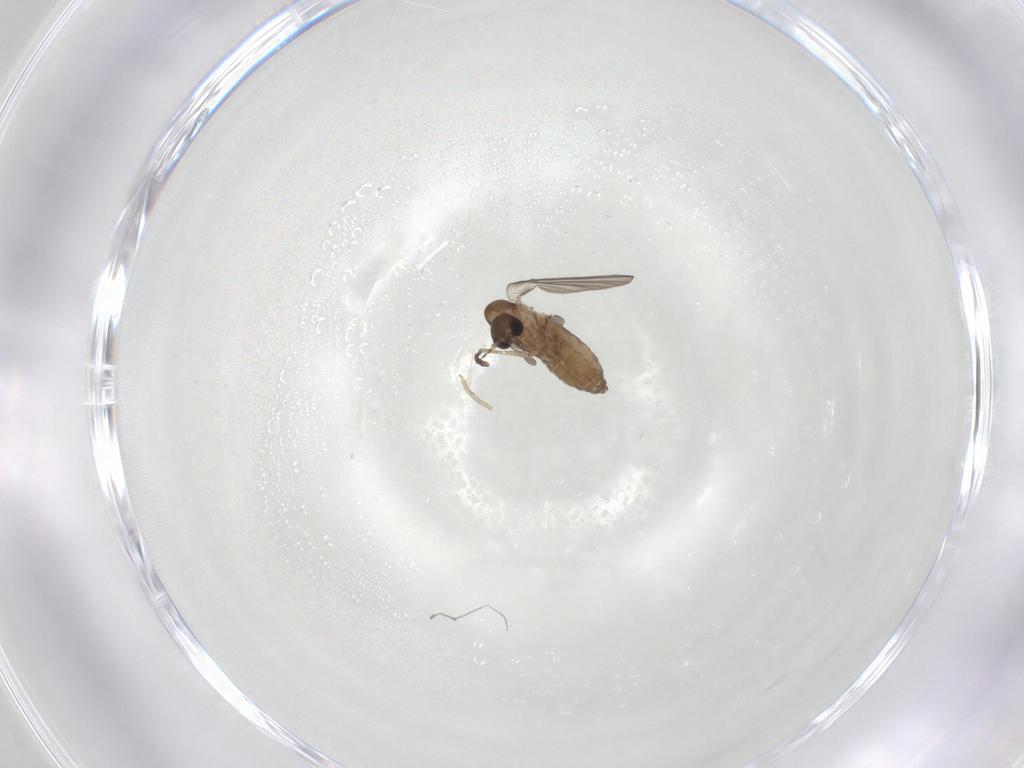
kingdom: Animalia
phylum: Arthropoda
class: Insecta
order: Diptera
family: Psychodidae
